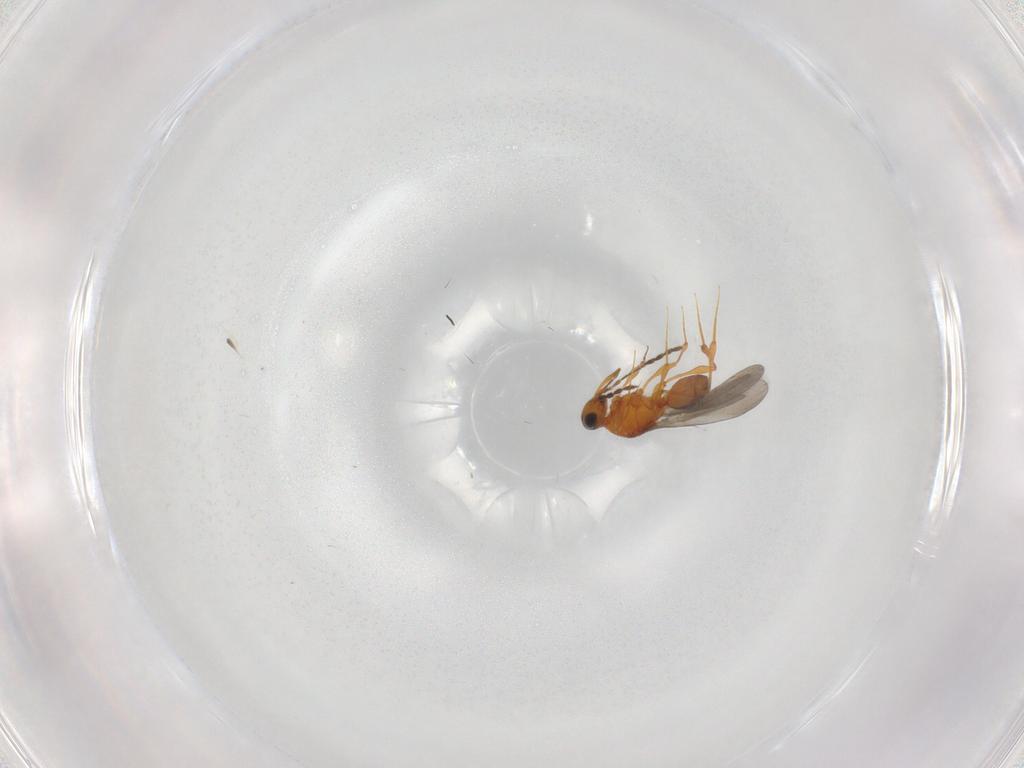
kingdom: Animalia
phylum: Arthropoda
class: Insecta
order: Hymenoptera
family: Platygastridae
